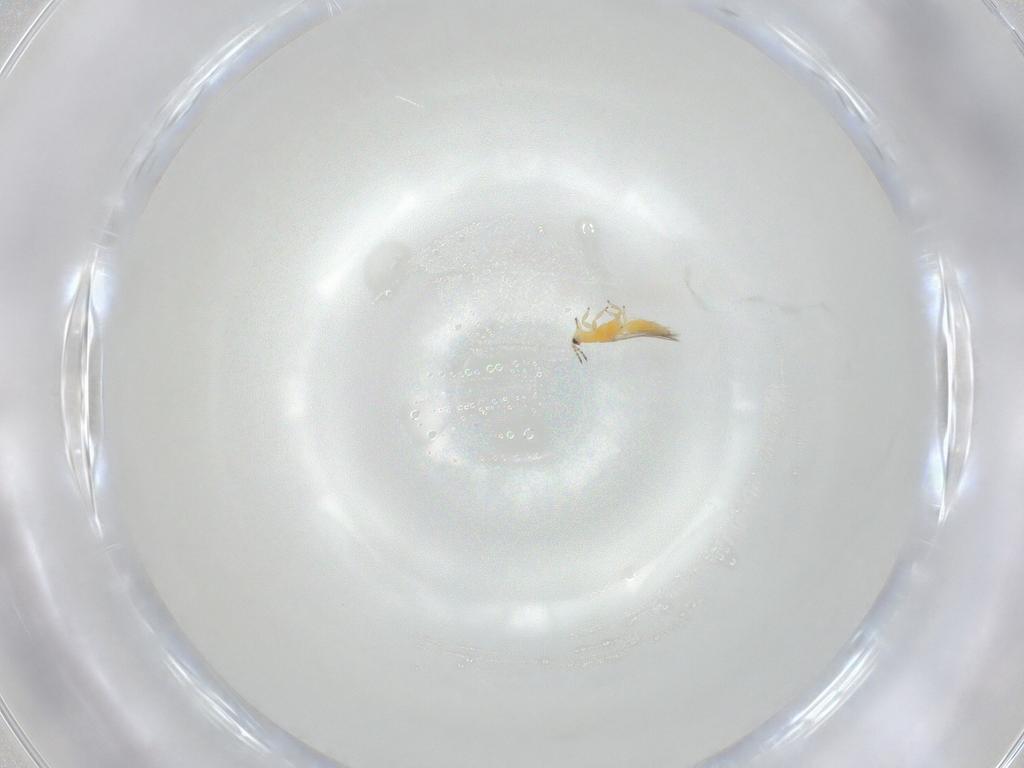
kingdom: Animalia
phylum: Arthropoda
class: Insecta
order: Thysanoptera
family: Thripidae
